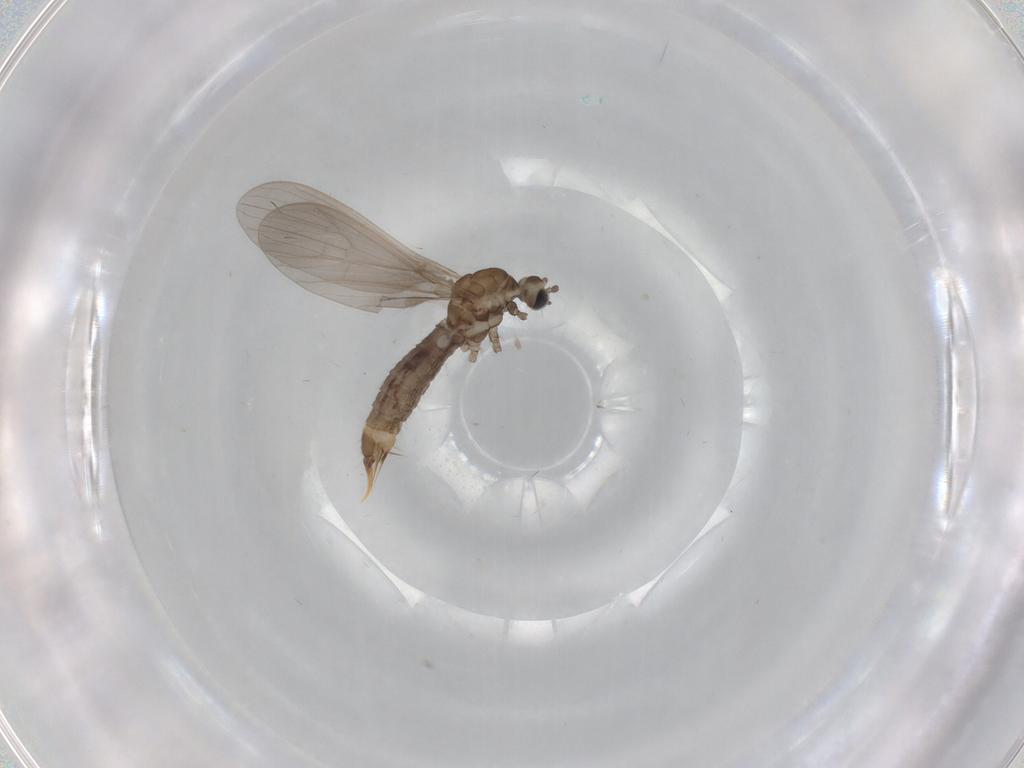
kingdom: Animalia
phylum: Arthropoda
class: Insecta
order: Diptera
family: Limoniidae
